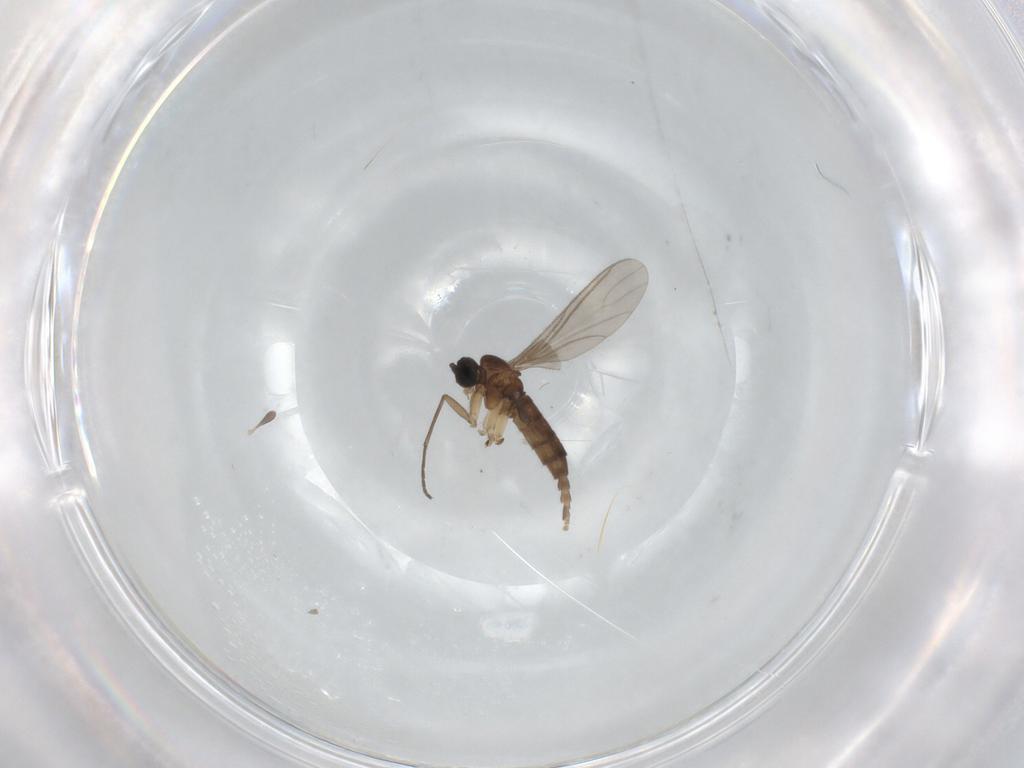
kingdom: Animalia
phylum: Arthropoda
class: Insecta
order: Diptera
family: Sciaridae
